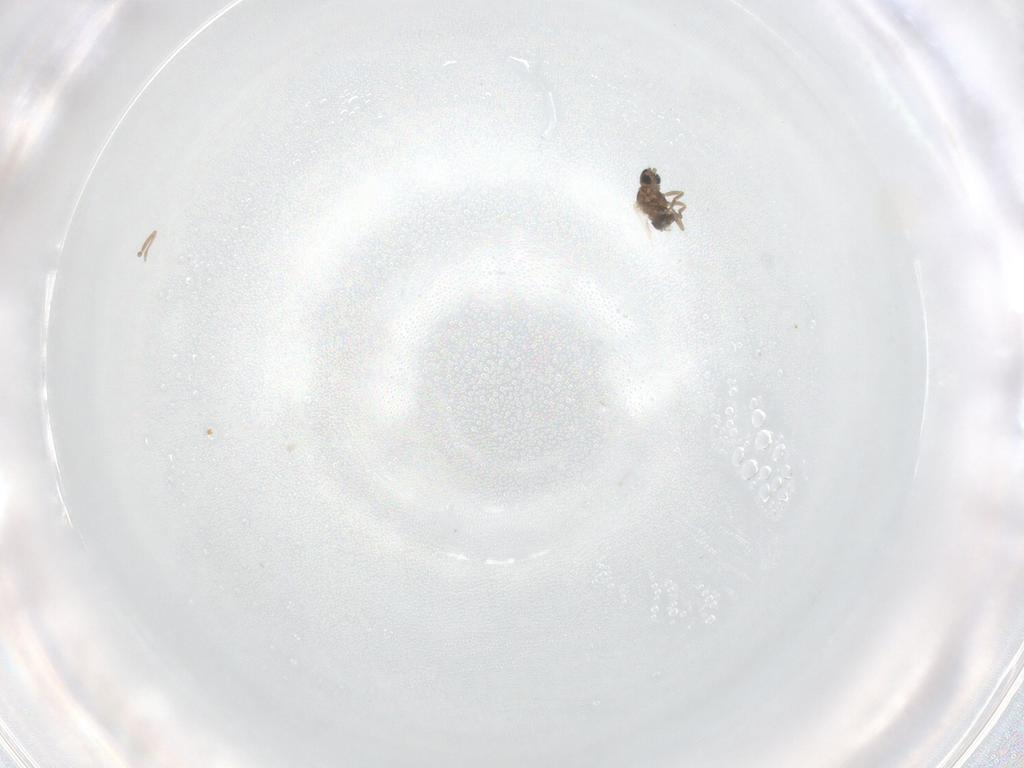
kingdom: Animalia
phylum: Arthropoda
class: Insecta
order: Diptera
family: Cecidomyiidae
